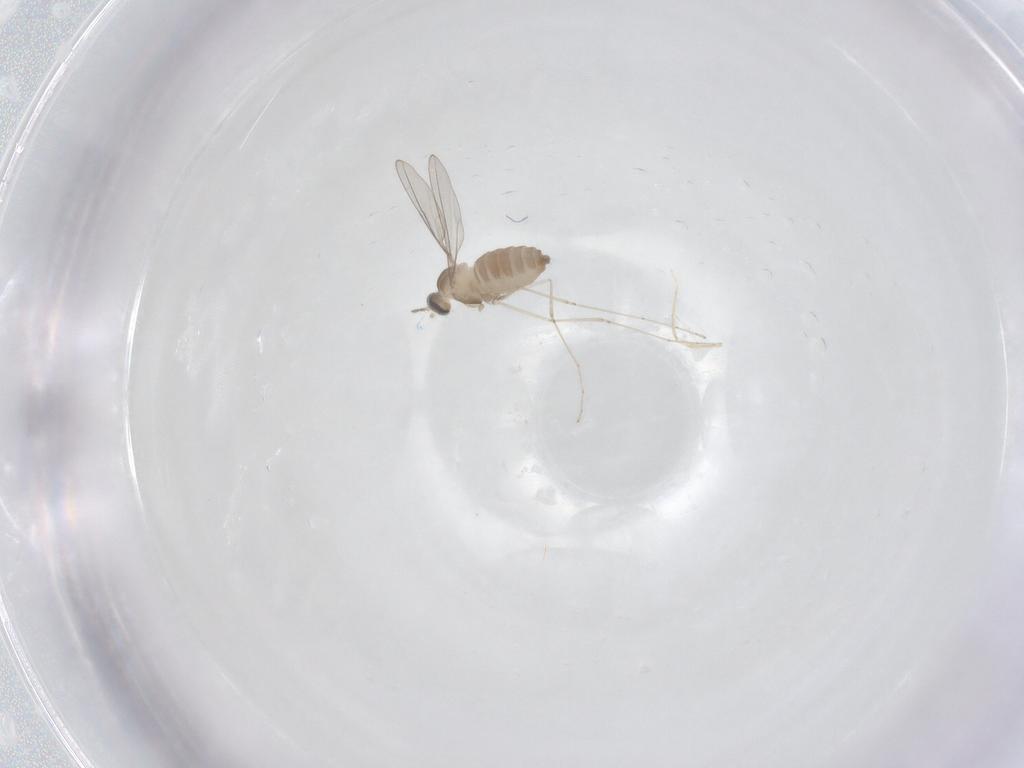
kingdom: Animalia
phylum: Arthropoda
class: Insecta
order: Diptera
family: Cecidomyiidae
